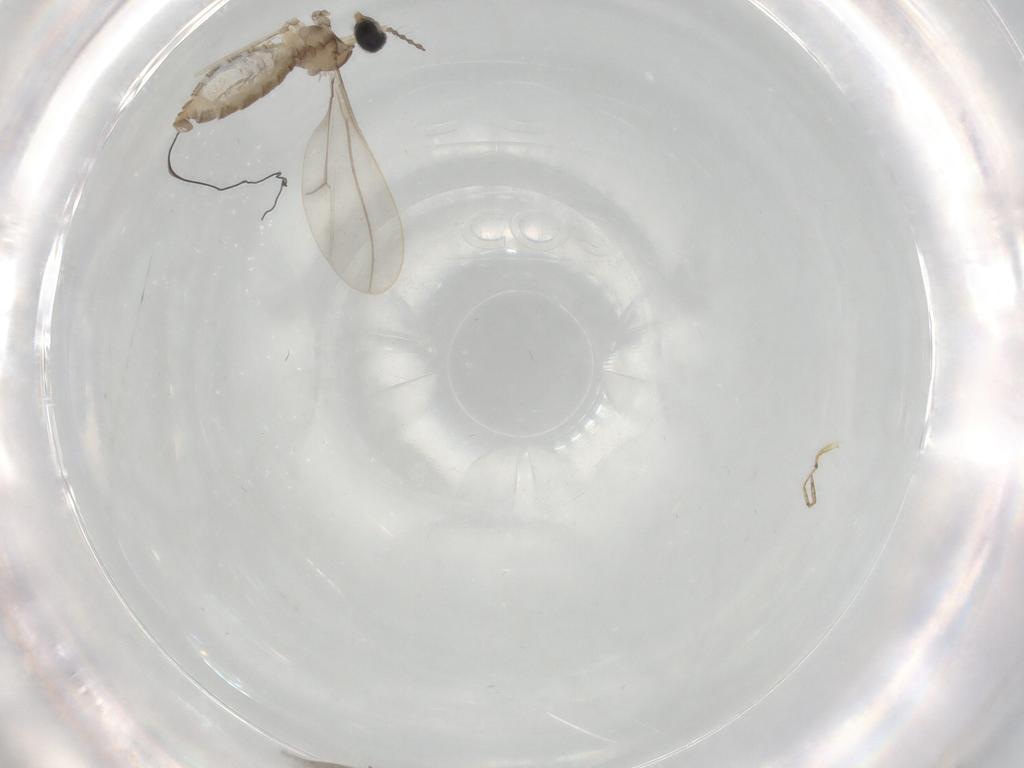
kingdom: Animalia
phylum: Arthropoda
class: Insecta
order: Diptera
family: Cecidomyiidae
